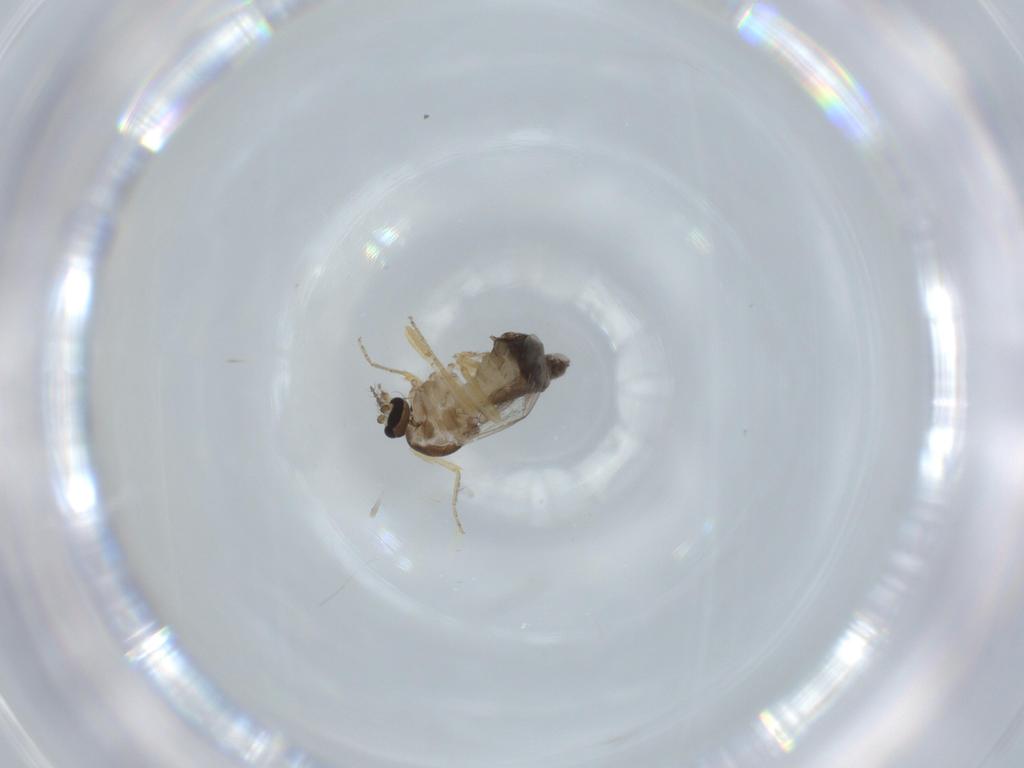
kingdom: Animalia
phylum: Arthropoda
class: Insecta
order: Diptera
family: Ceratopogonidae
